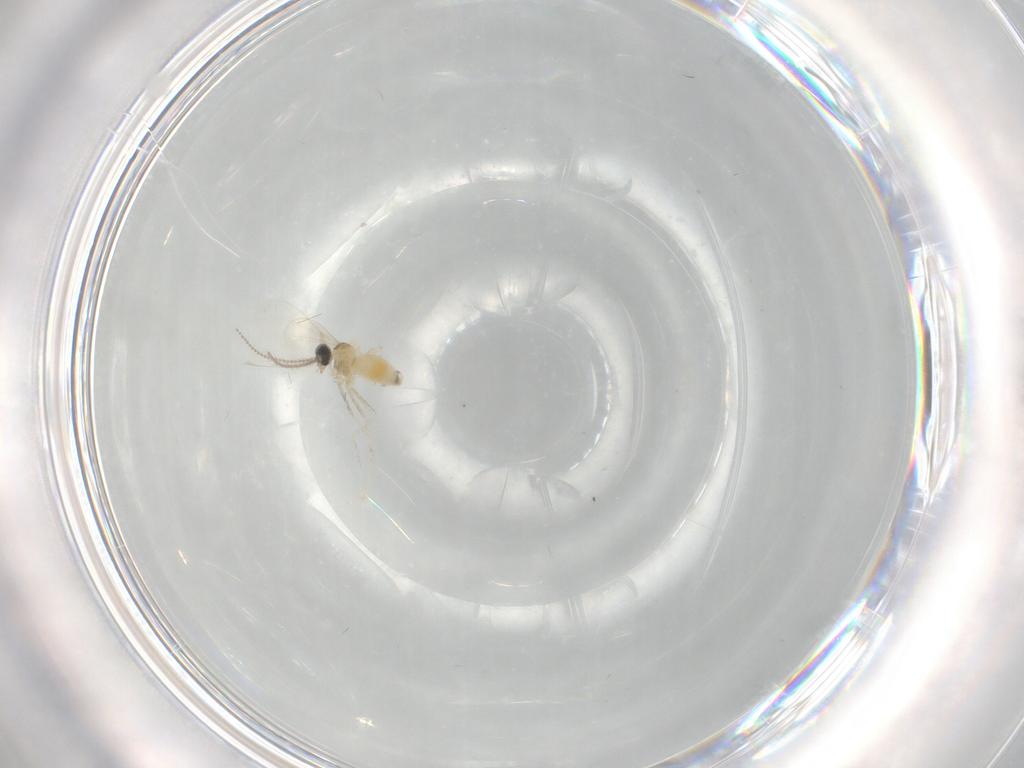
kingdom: Animalia
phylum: Arthropoda
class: Insecta
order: Diptera
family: Cecidomyiidae
